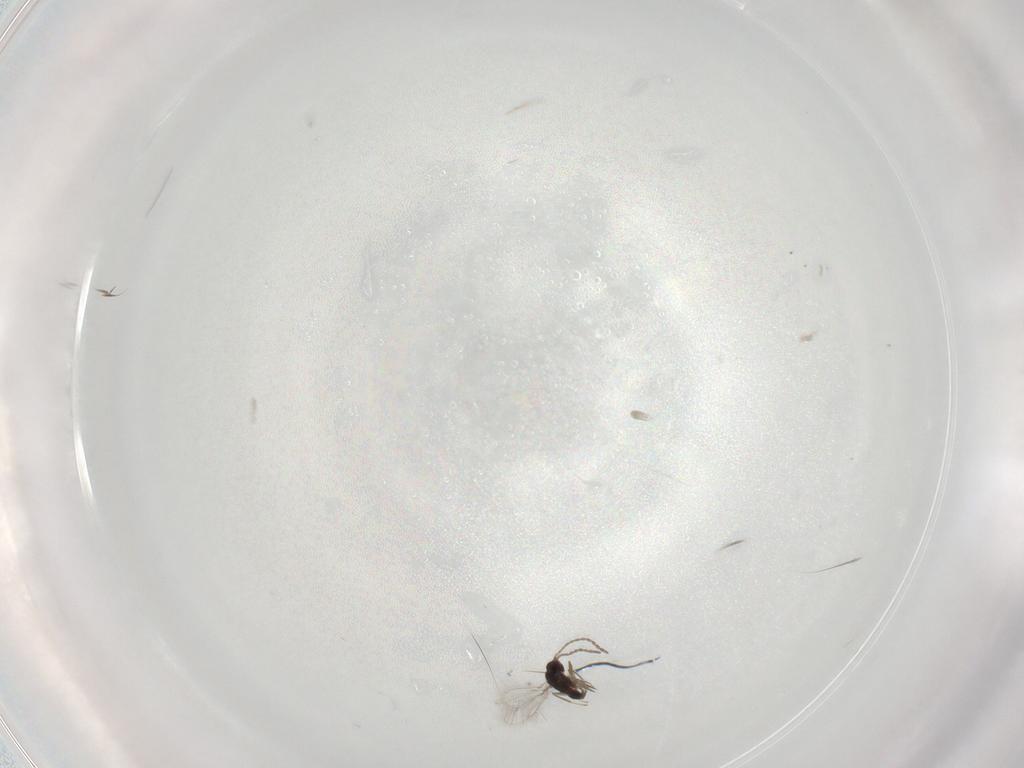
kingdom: Animalia
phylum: Arthropoda
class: Insecta
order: Hymenoptera
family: Mymaridae
